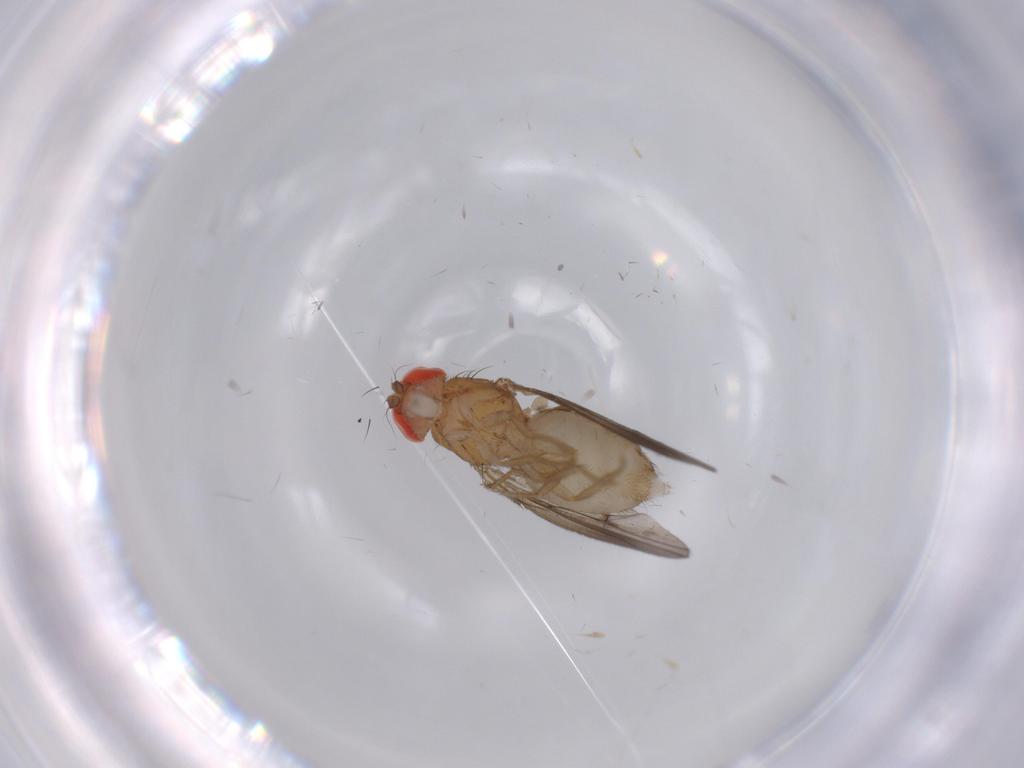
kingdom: Animalia
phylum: Arthropoda
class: Insecta
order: Diptera
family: Drosophilidae
